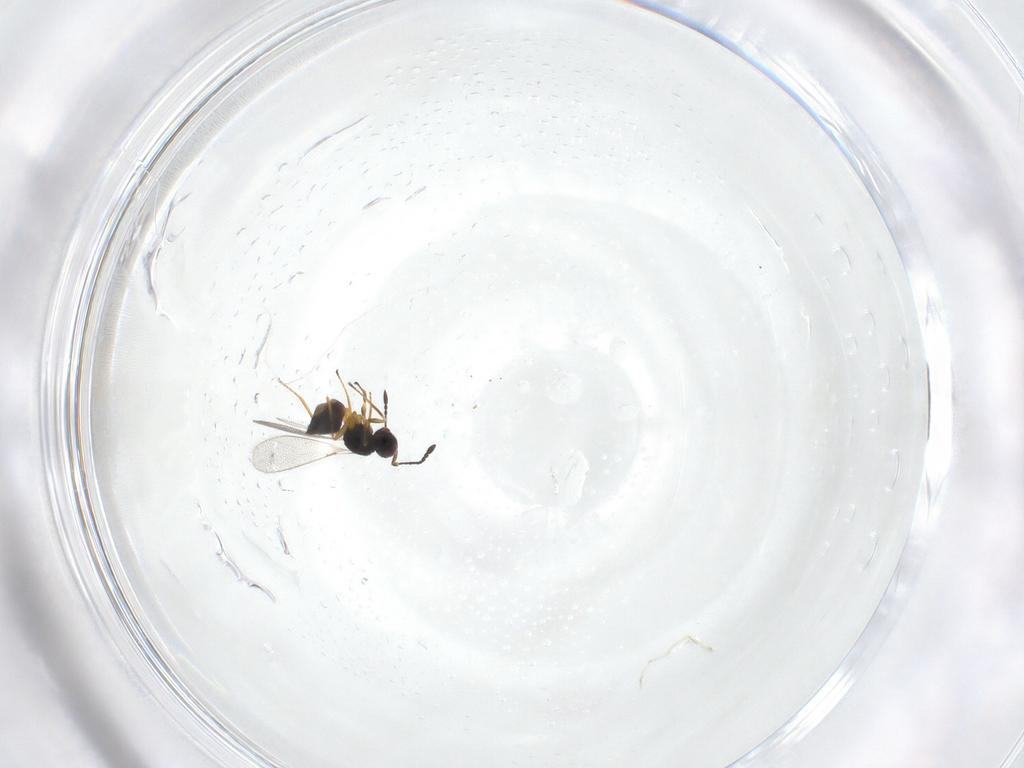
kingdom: Animalia
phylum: Arthropoda
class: Insecta
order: Hymenoptera
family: Mymaridae
